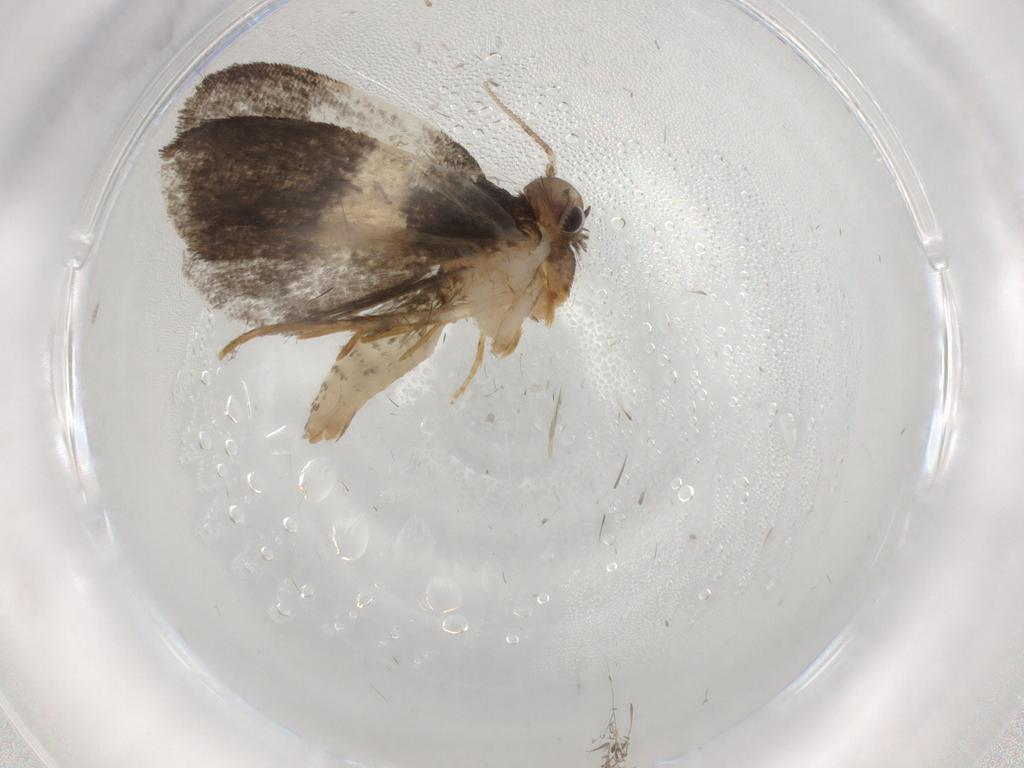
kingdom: Animalia
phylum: Arthropoda
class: Insecta
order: Lepidoptera
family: Psychidae
